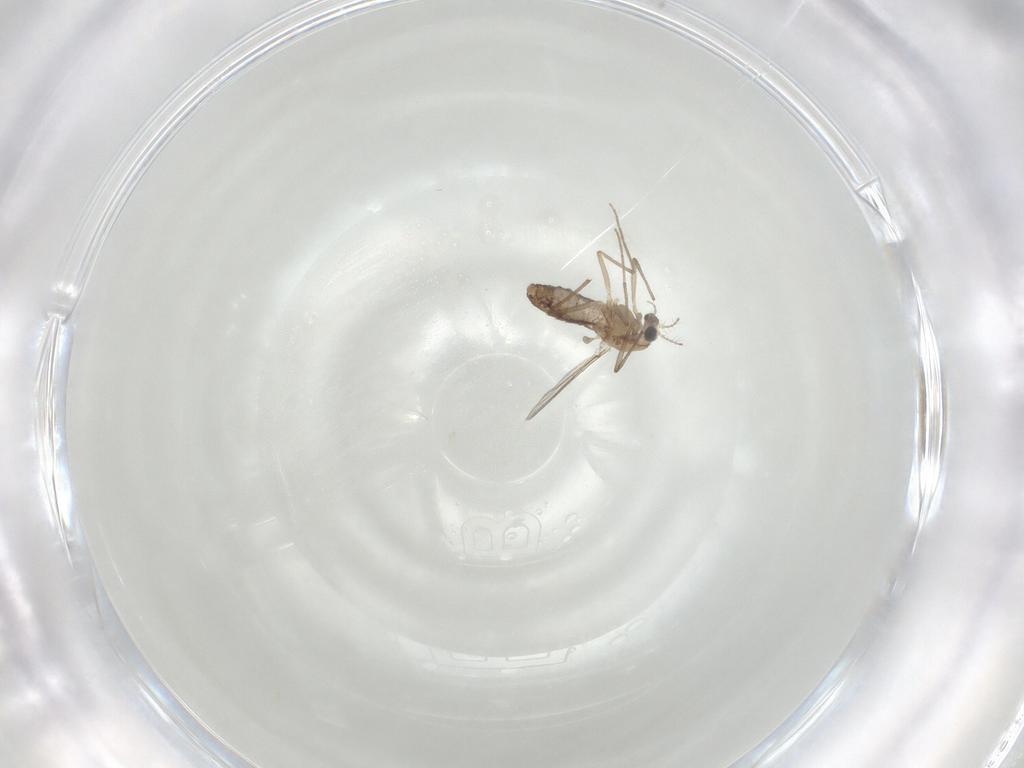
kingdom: Animalia
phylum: Arthropoda
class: Insecta
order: Diptera
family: Chironomidae
